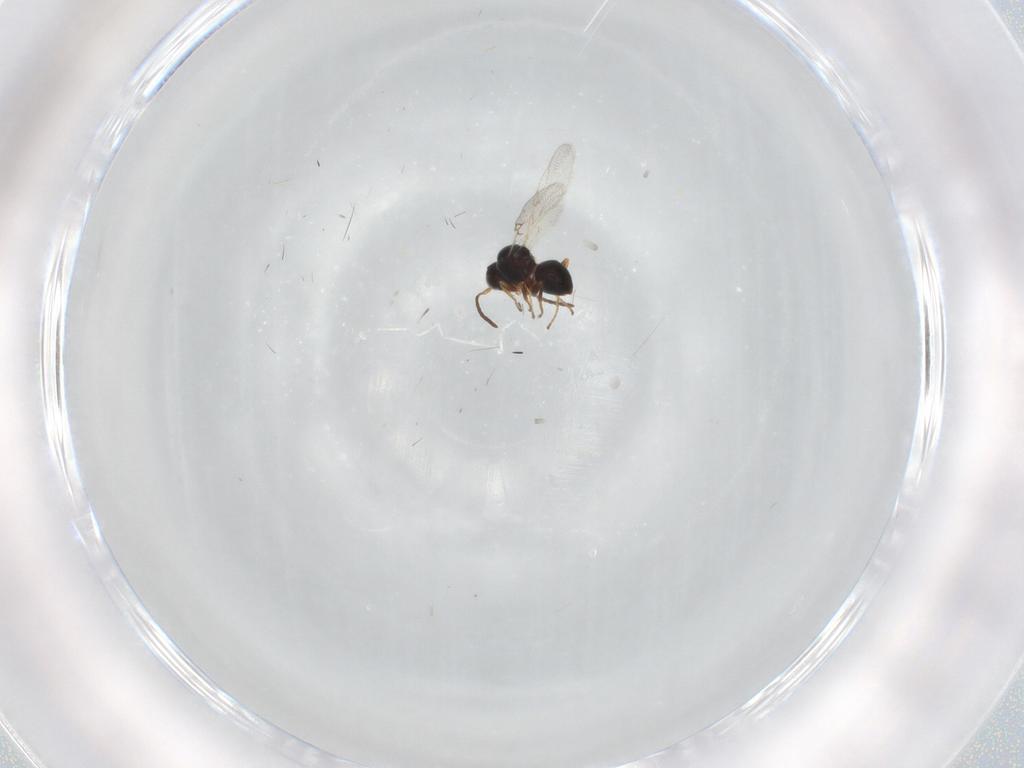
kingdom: Animalia
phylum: Arthropoda
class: Insecta
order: Hymenoptera
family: Figitidae
